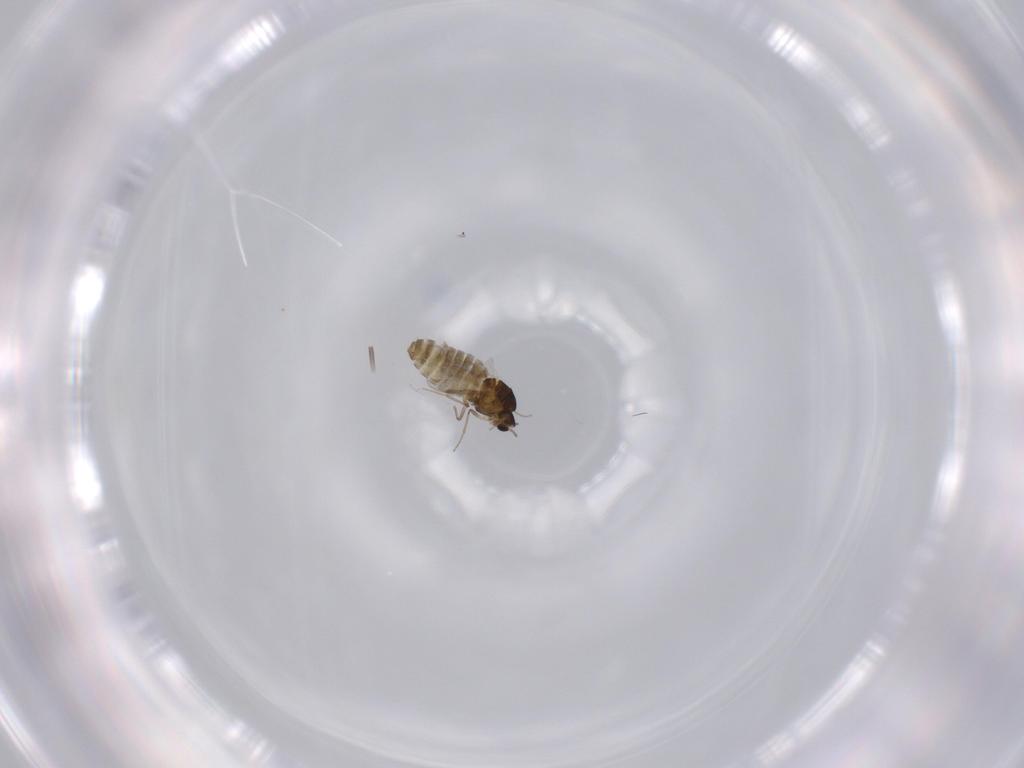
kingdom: Animalia
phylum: Arthropoda
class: Insecta
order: Diptera
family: Chironomidae
